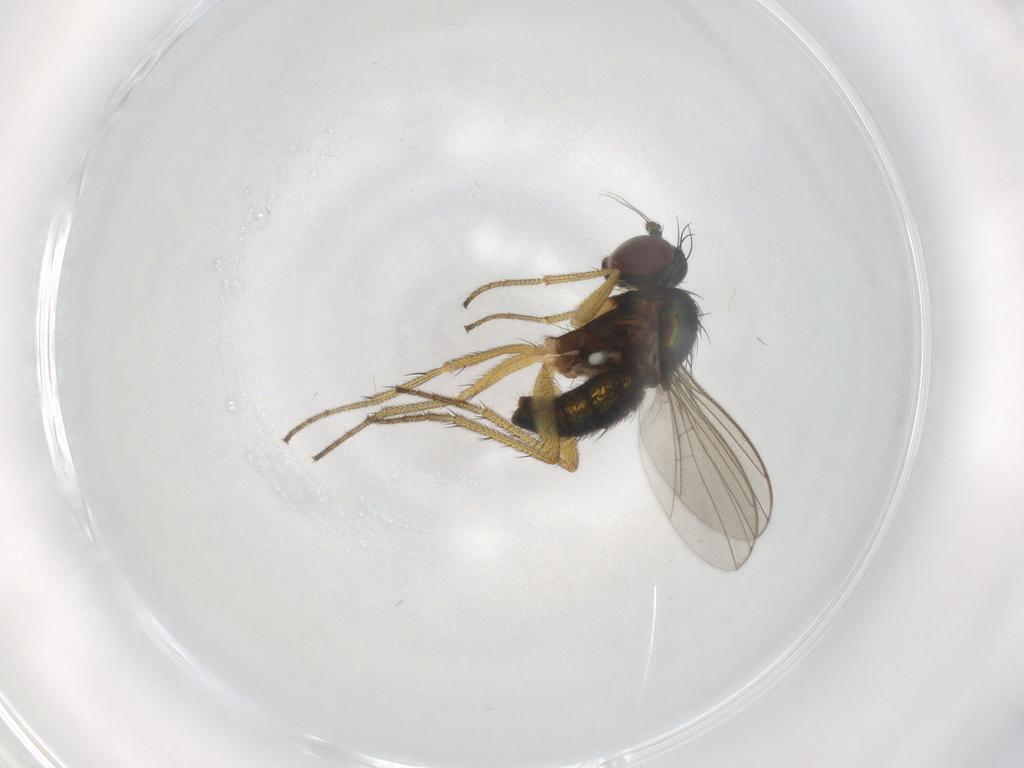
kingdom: Animalia
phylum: Arthropoda
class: Insecta
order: Diptera
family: Dolichopodidae
